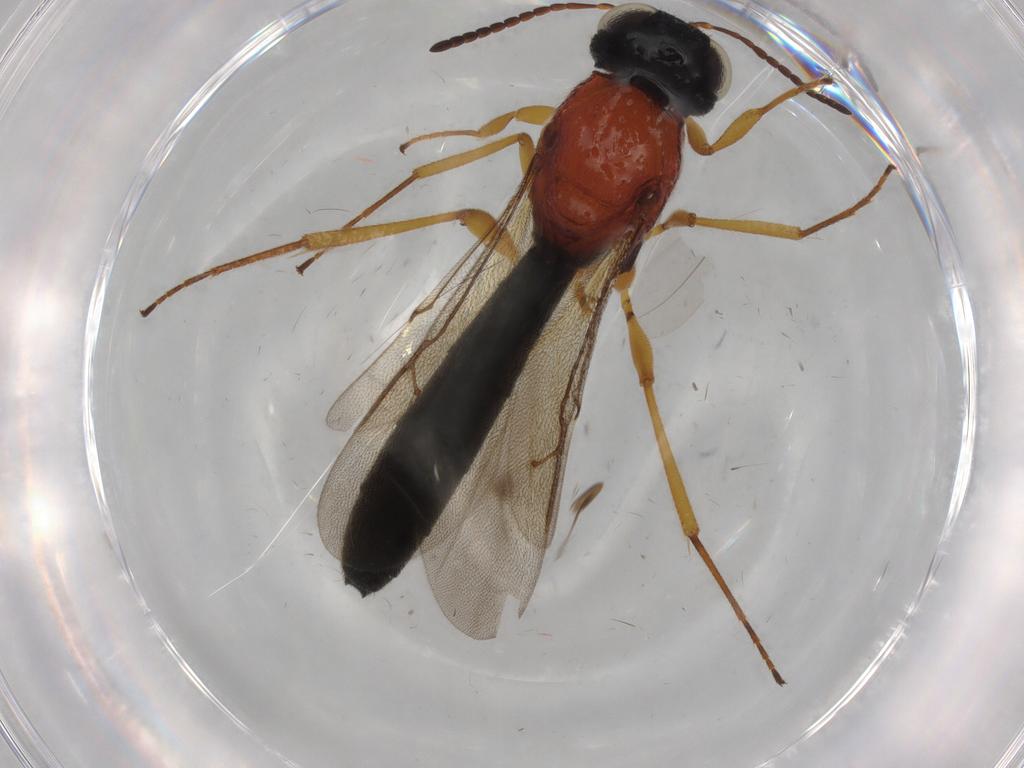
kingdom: Animalia
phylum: Arthropoda
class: Insecta
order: Hymenoptera
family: Scelionidae
